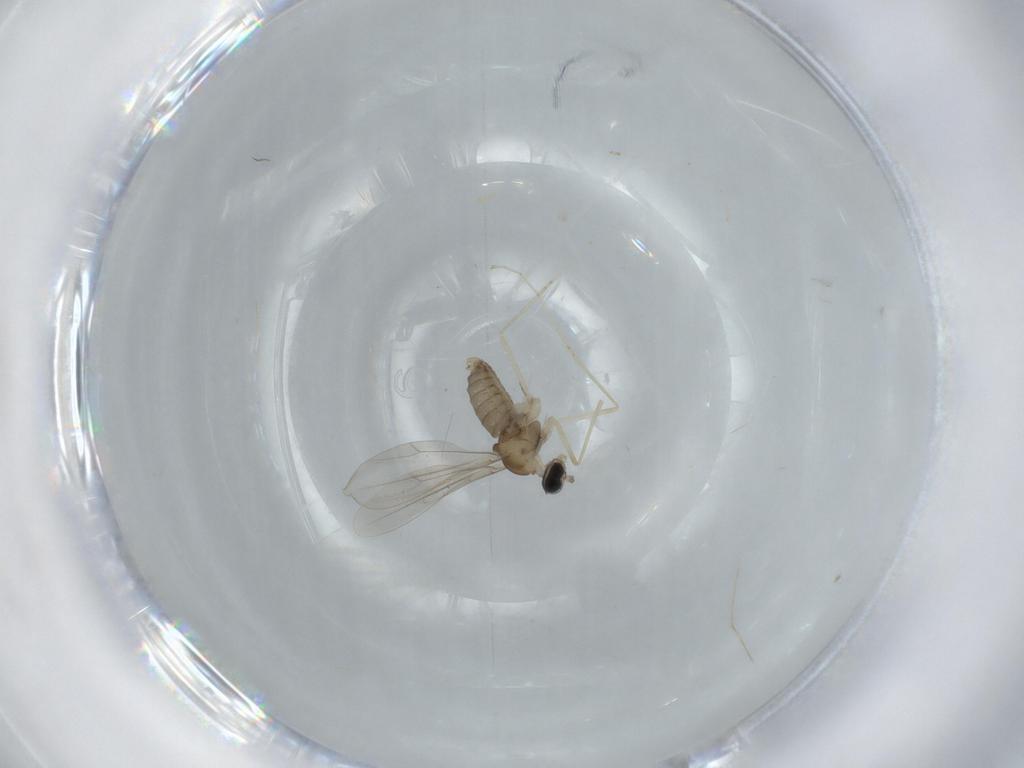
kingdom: Animalia
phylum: Arthropoda
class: Insecta
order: Diptera
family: Cecidomyiidae
